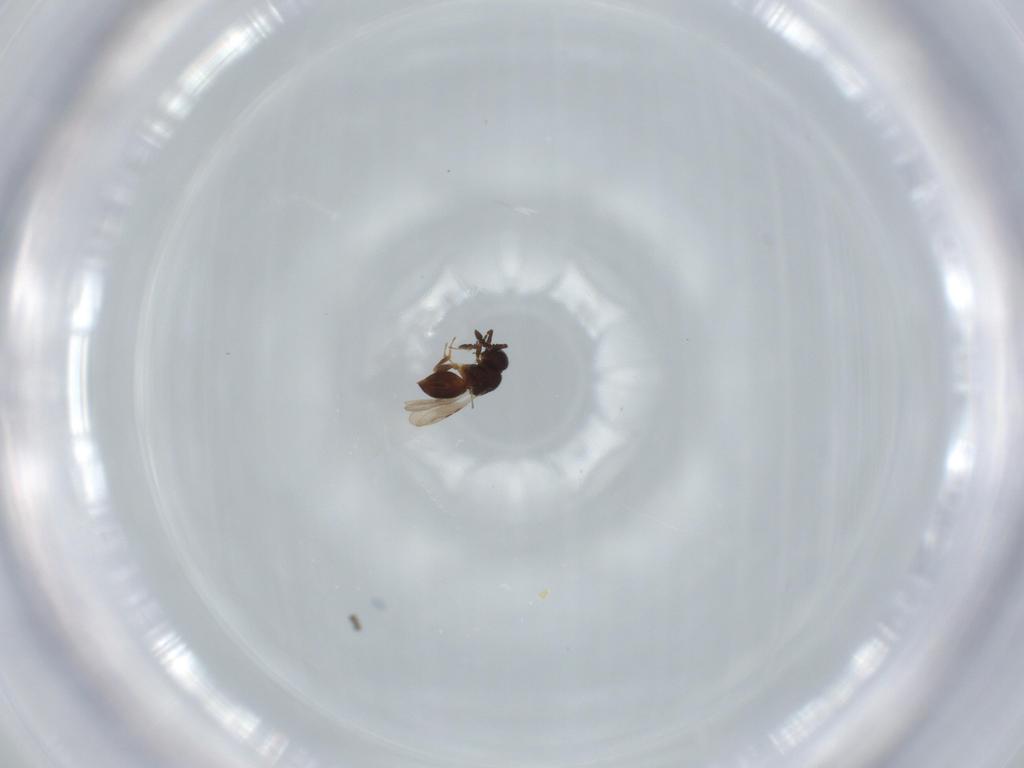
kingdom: Animalia
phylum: Arthropoda
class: Insecta
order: Hymenoptera
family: Ceraphronidae
